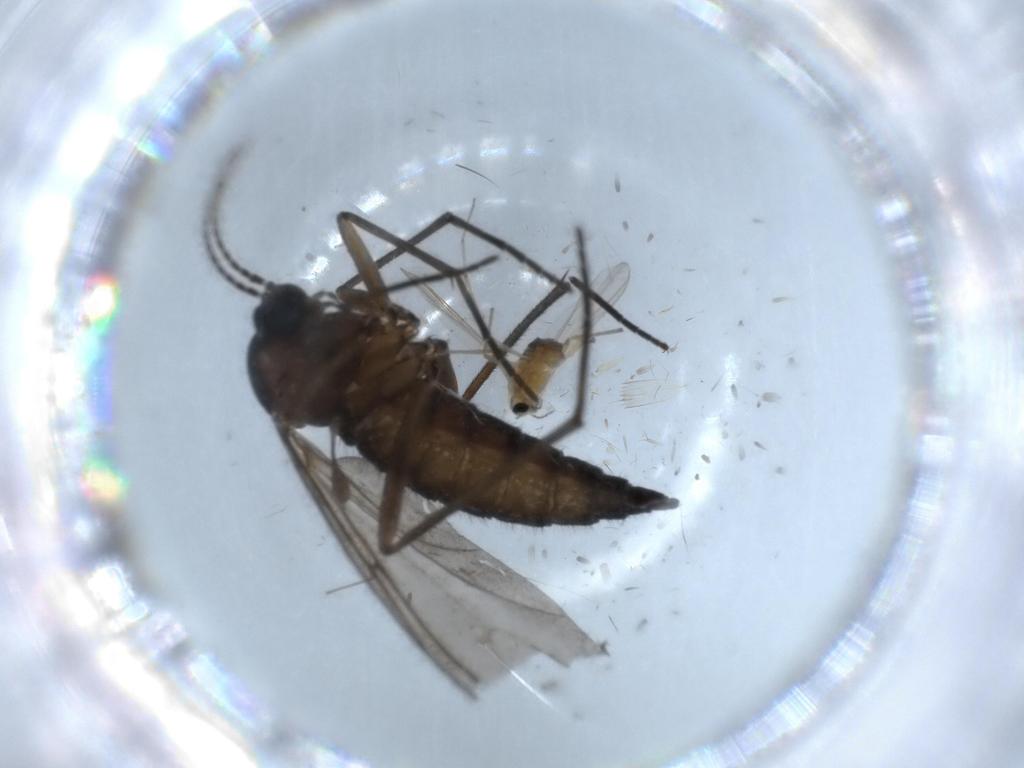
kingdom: Animalia
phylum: Arthropoda
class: Insecta
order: Diptera
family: Sciaridae
